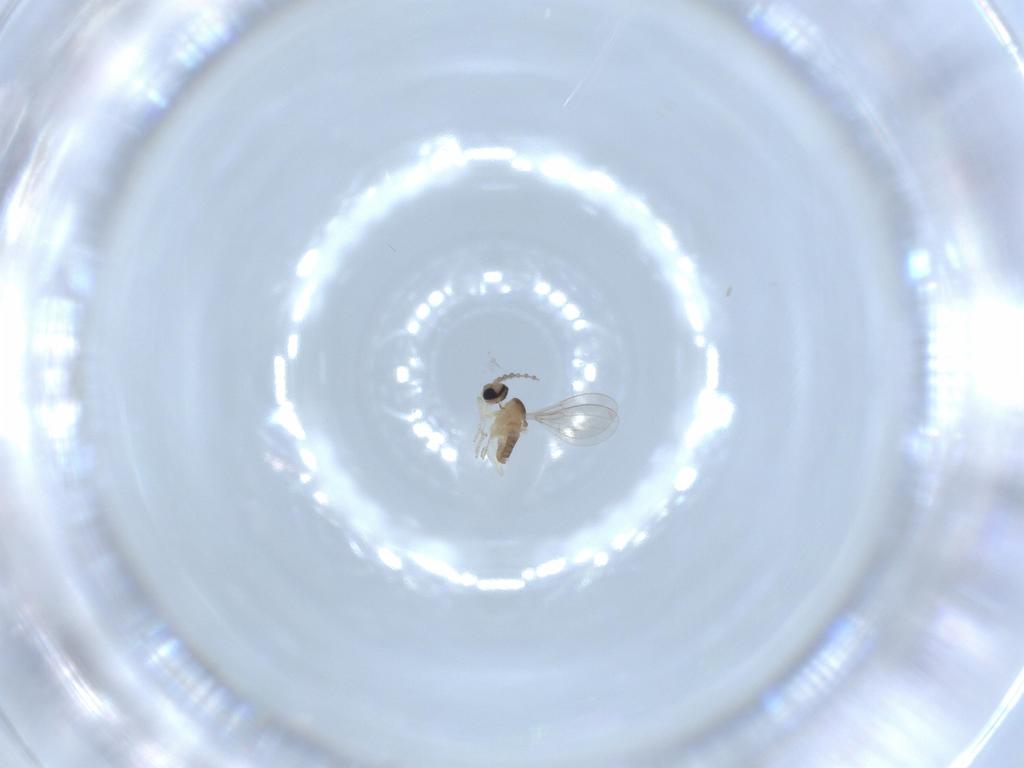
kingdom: Animalia
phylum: Arthropoda
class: Insecta
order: Diptera
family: Cecidomyiidae
